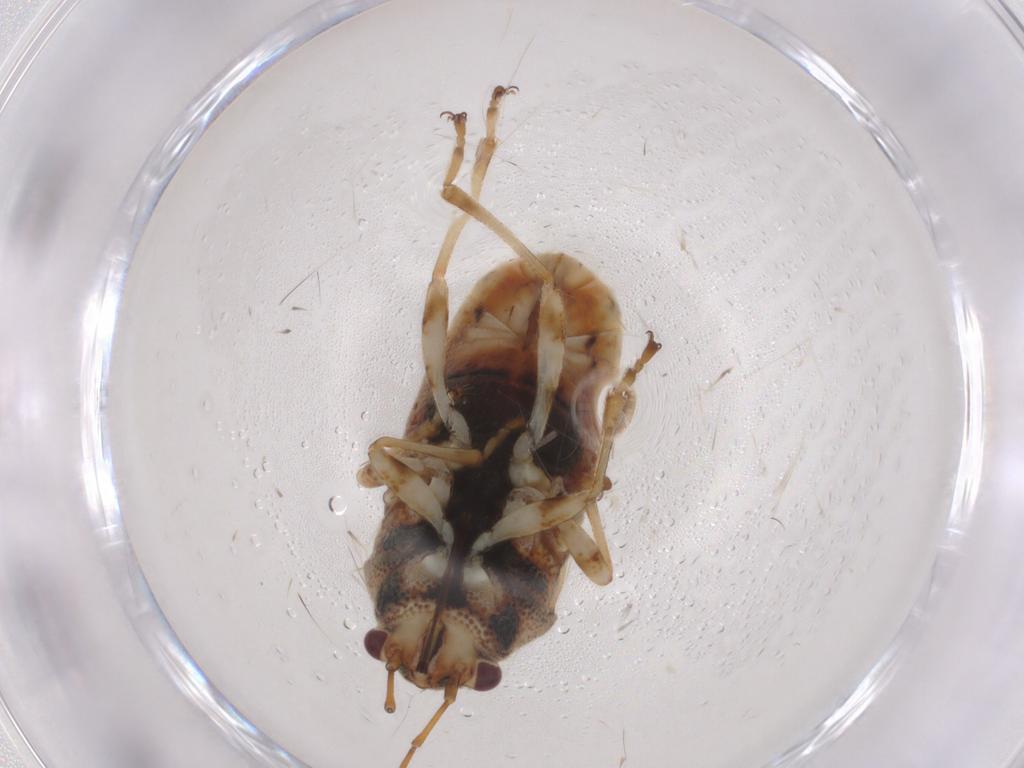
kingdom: Animalia
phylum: Arthropoda
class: Insecta
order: Hemiptera
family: Lygaeidae
